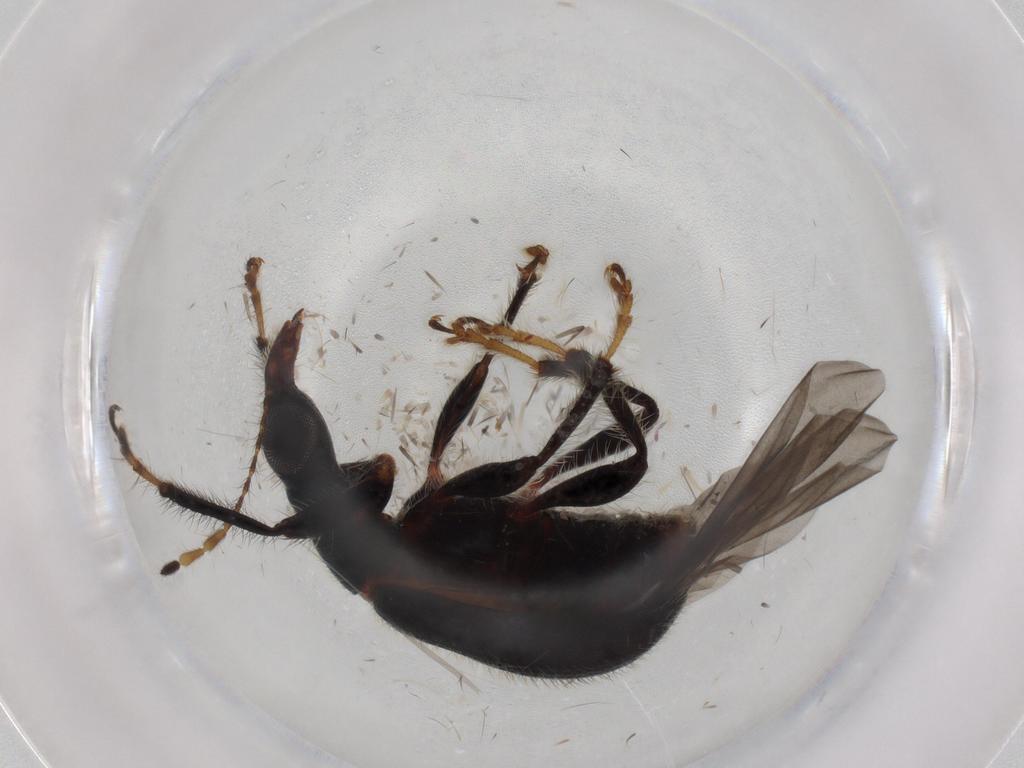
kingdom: Animalia
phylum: Arthropoda
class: Insecta
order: Coleoptera
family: Attelabidae
